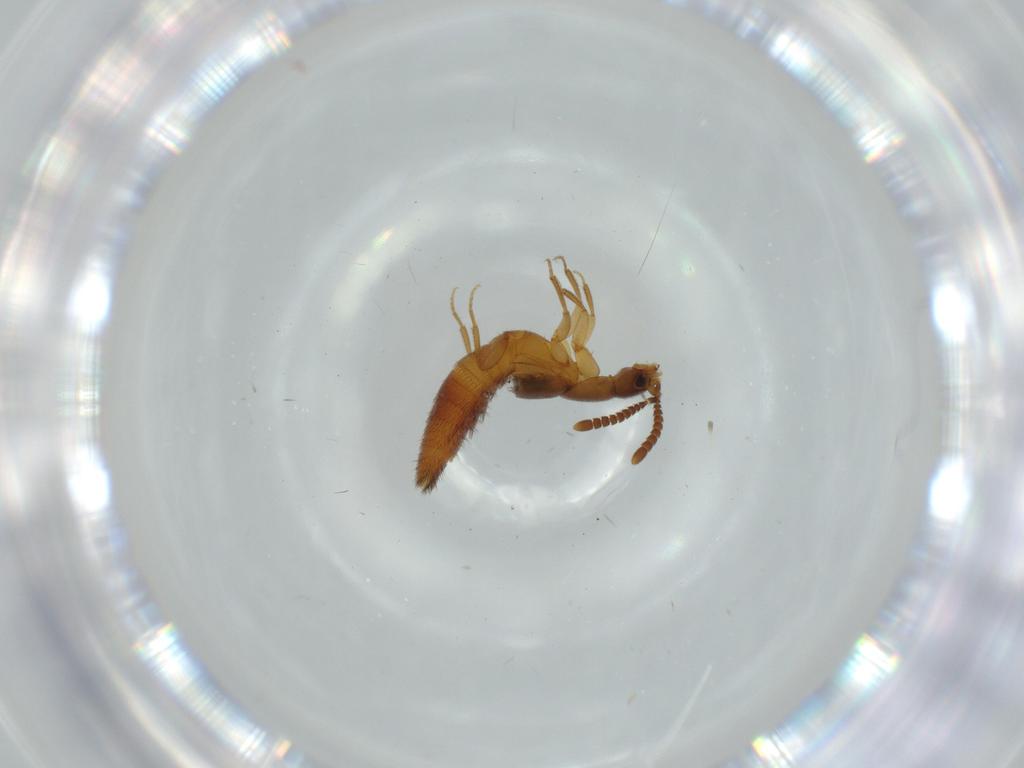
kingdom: Animalia
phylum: Arthropoda
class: Insecta
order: Coleoptera
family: Staphylinidae
